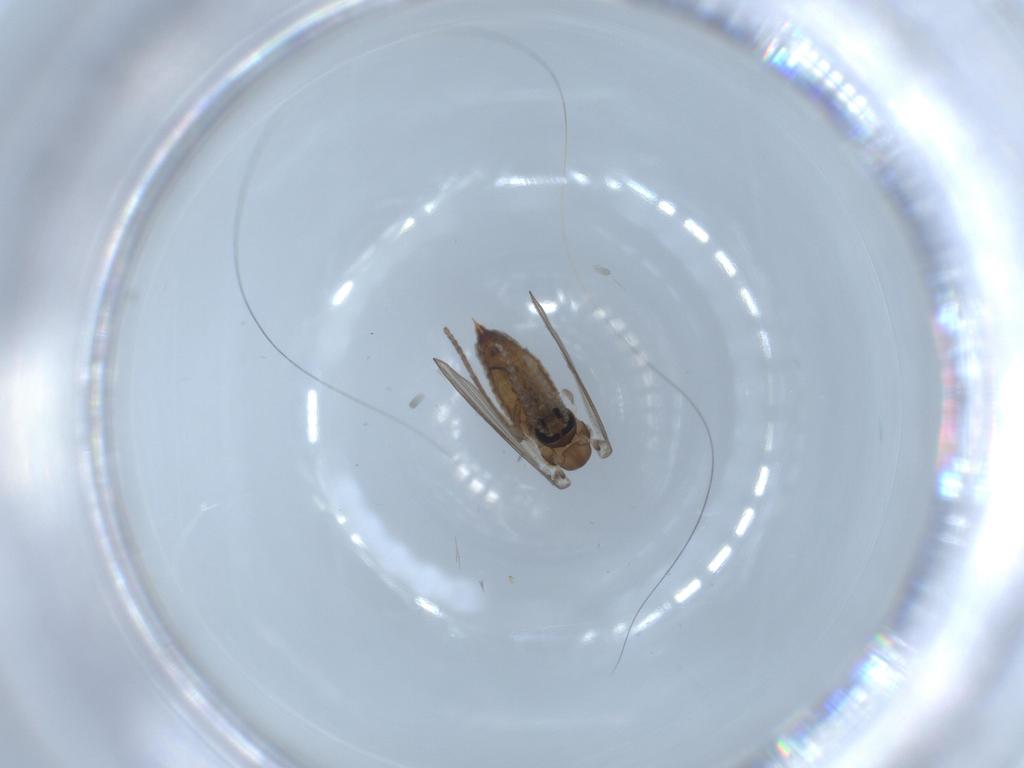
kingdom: Animalia
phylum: Arthropoda
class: Insecta
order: Diptera
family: Psychodidae
